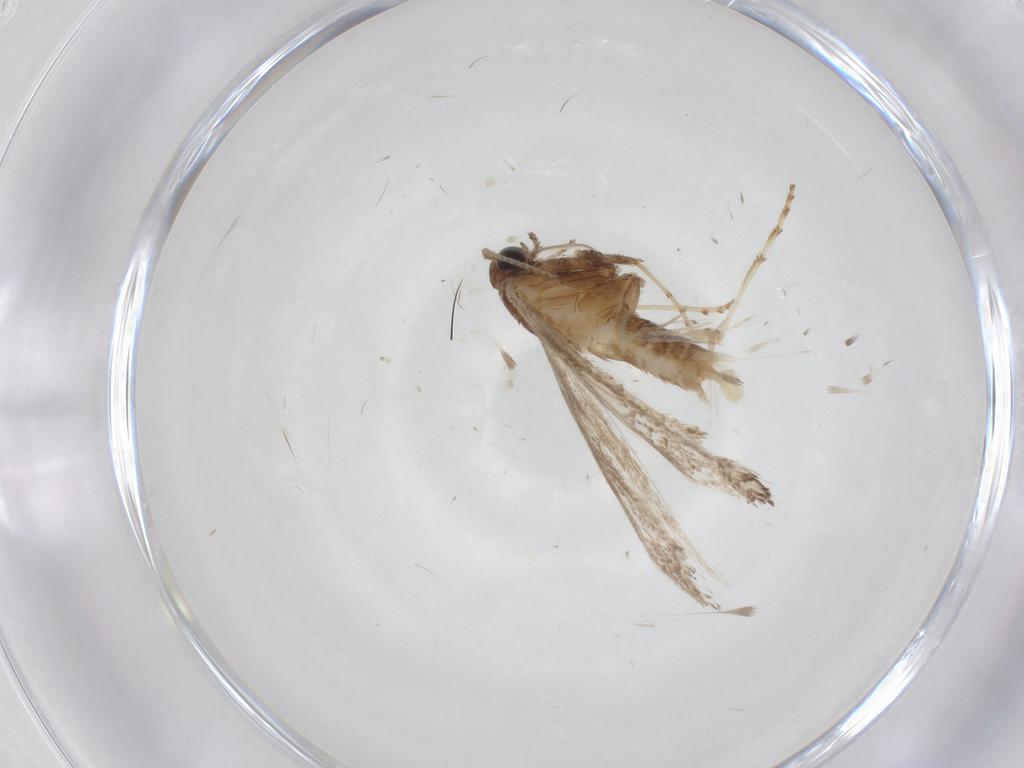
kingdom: Animalia
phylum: Arthropoda
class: Insecta
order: Lepidoptera
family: Gracillariidae
